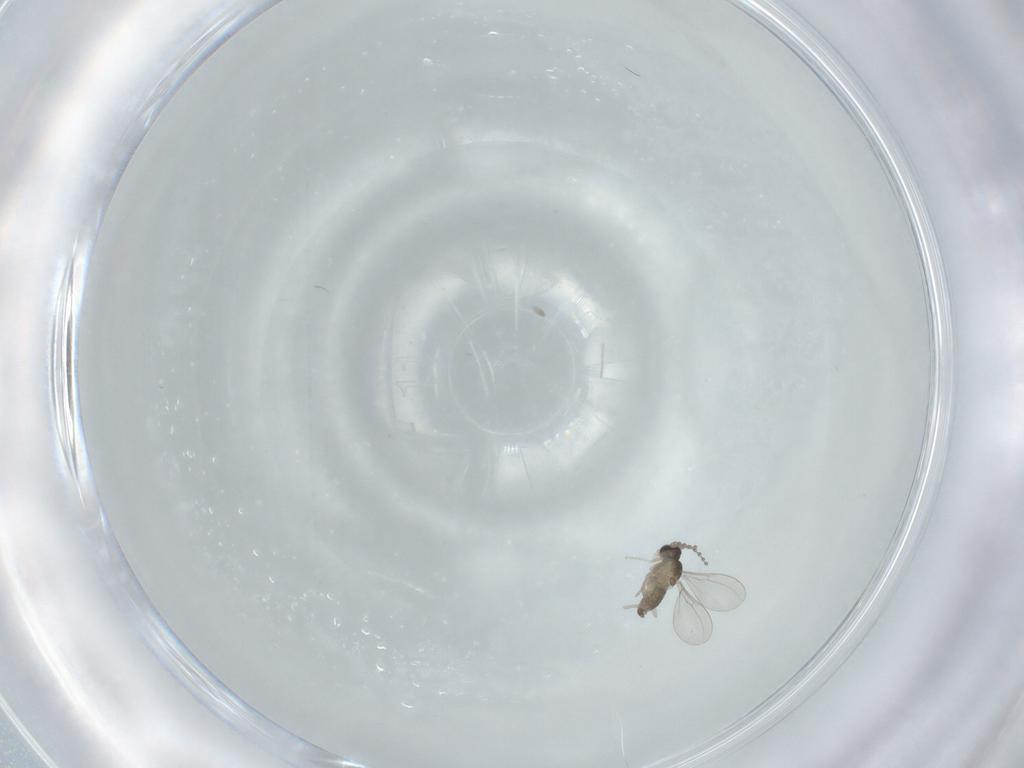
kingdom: Animalia
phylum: Arthropoda
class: Insecta
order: Diptera
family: Cecidomyiidae
